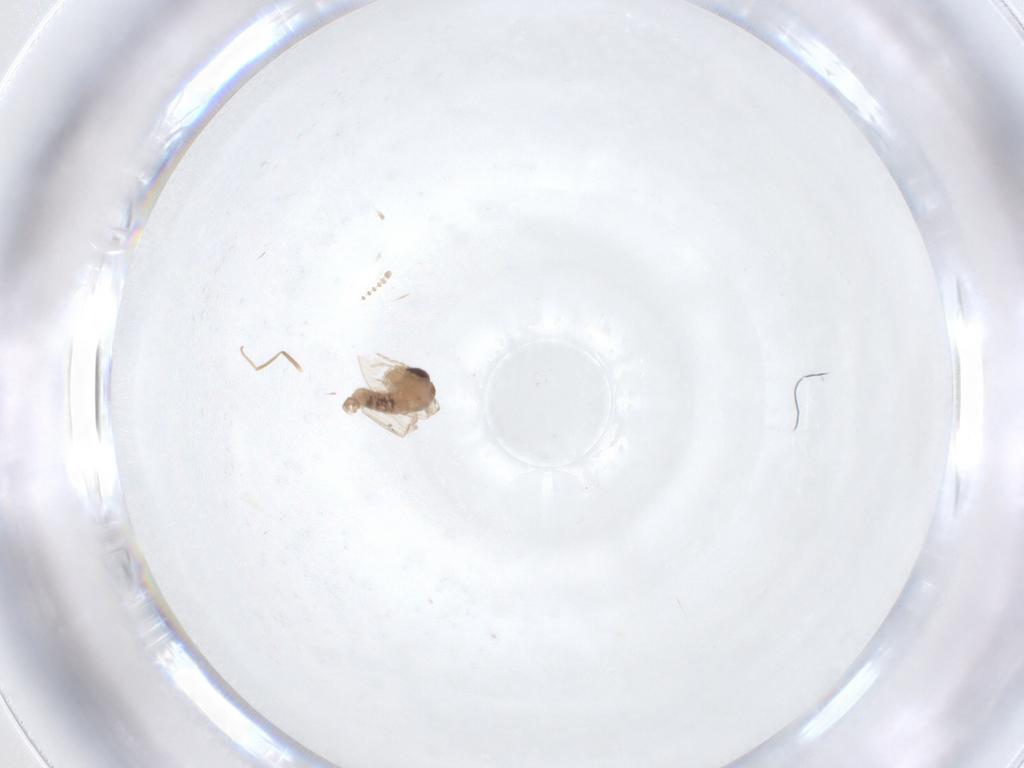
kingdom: Animalia
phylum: Arthropoda
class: Insecta
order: Diptera
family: Psychodidae
